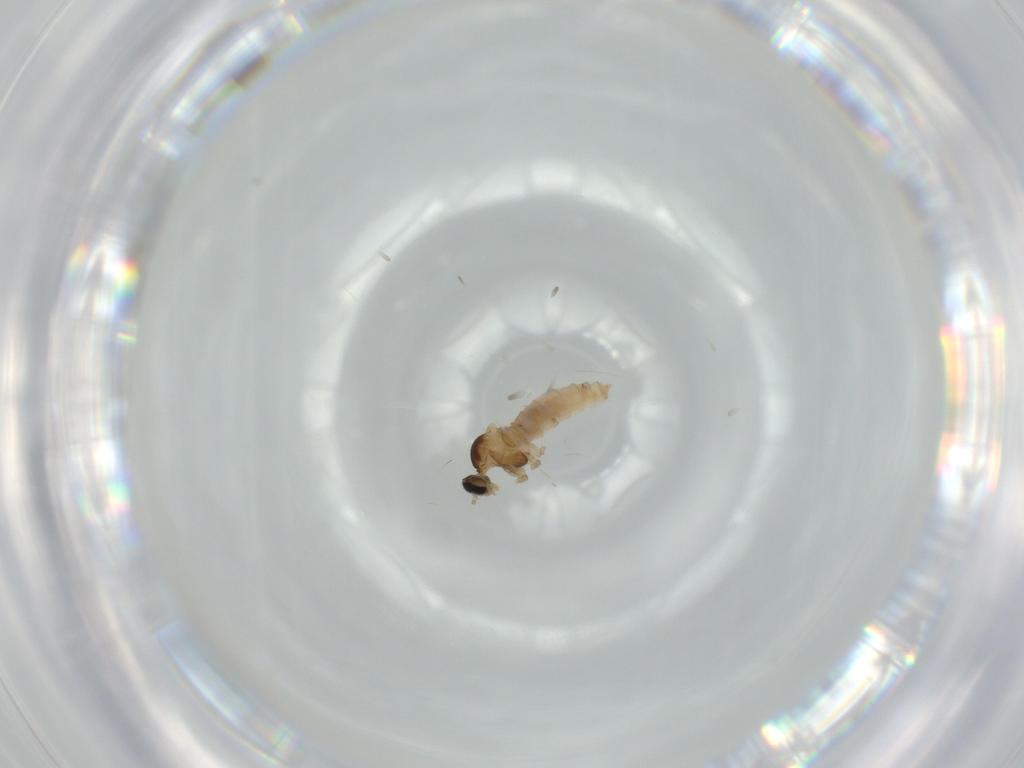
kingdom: Animalia
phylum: Arthropoda
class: Insecta
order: Diptera
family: Cecidomyiidae
